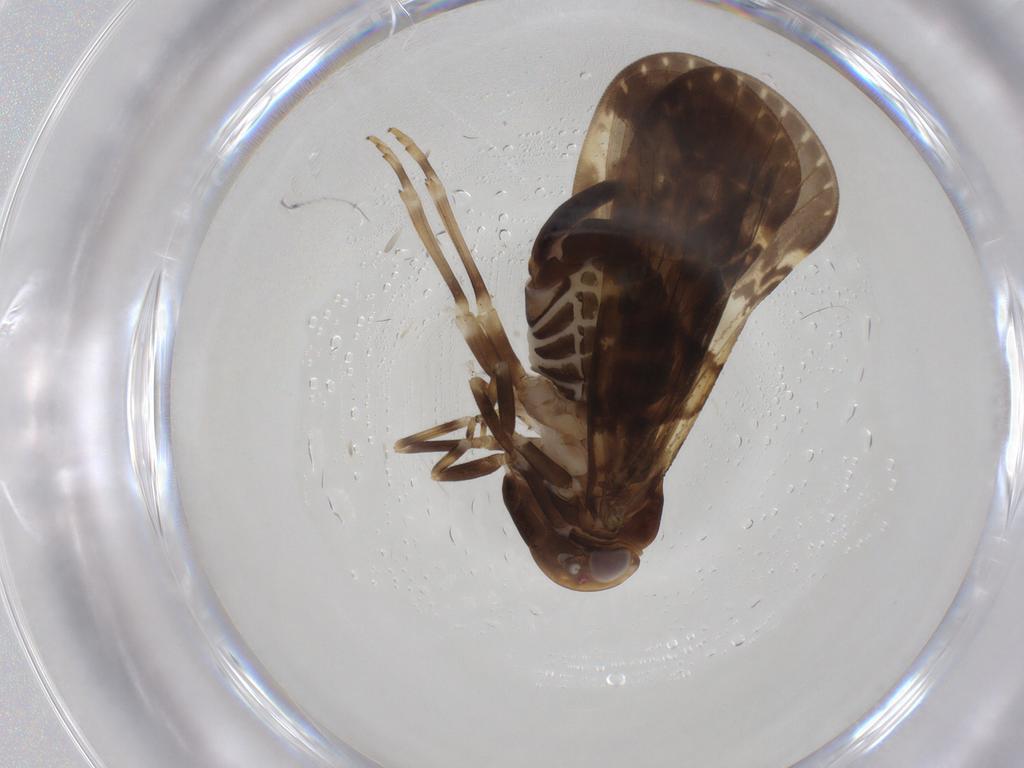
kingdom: Animalia
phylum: Arthropoda
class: Insecta
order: Hemiptera
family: Cixiidae
